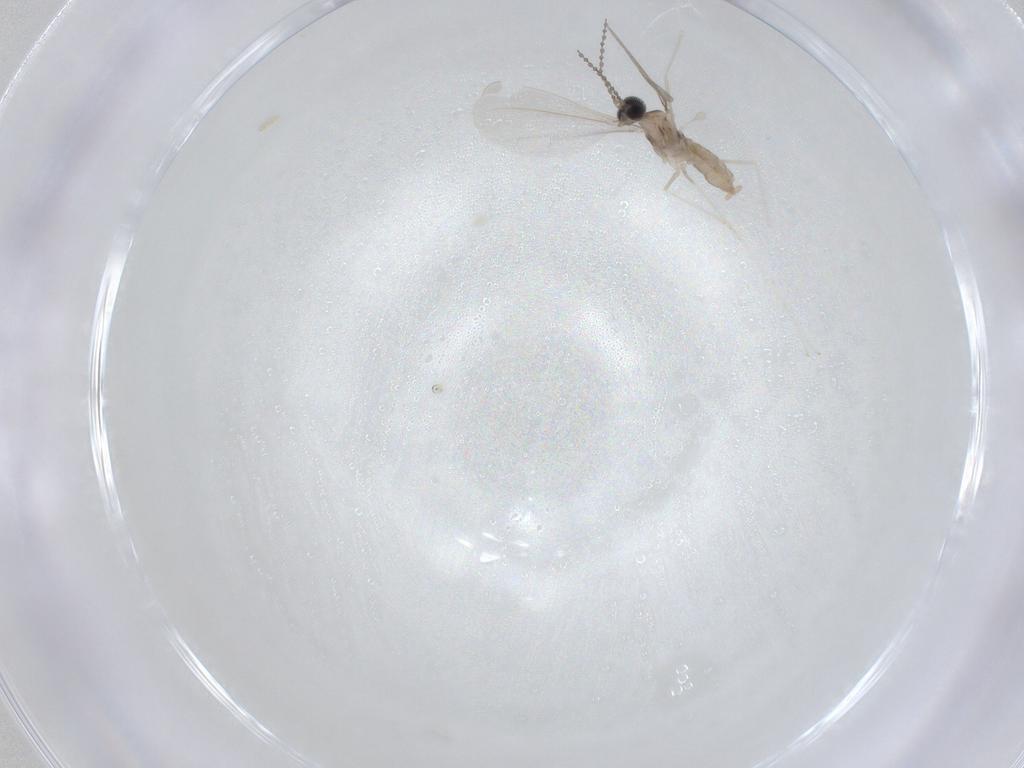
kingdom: Animalia
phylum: Arthropoda
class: Insecta
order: Diptera
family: Cecidomyiidae
